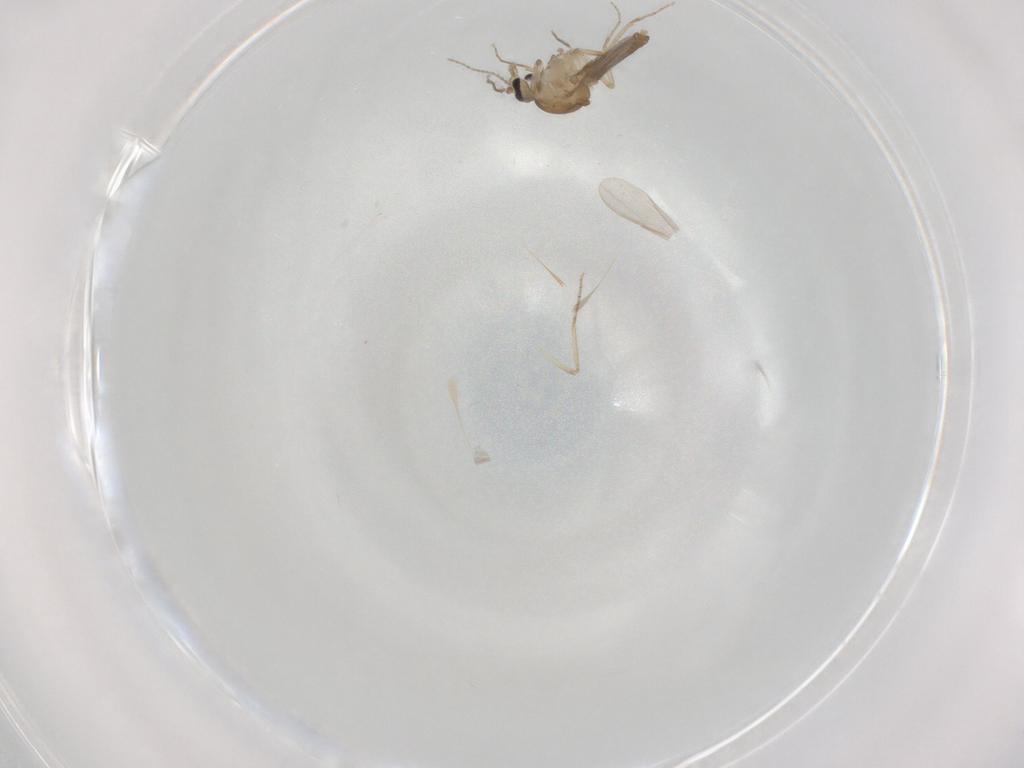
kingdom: Animalia
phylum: Arthropoda
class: Insecta
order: Diptera
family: Ceratopogonidae
